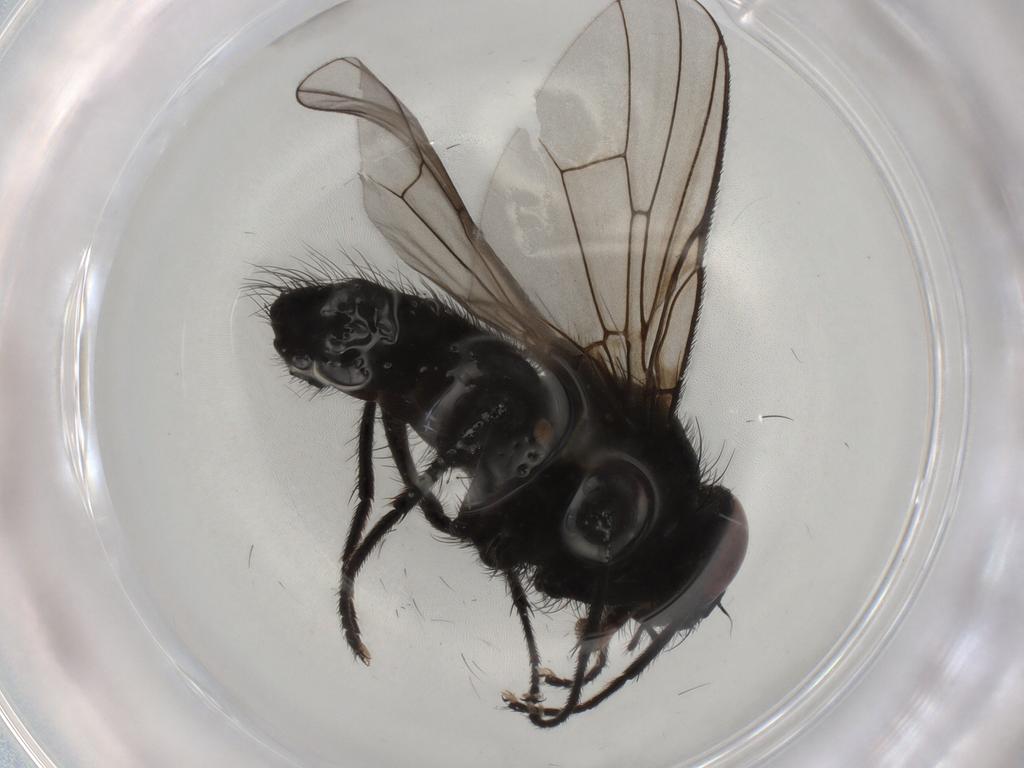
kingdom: Animalia
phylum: Arthropoda
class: Insecta
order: Diptera
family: Muscidae
